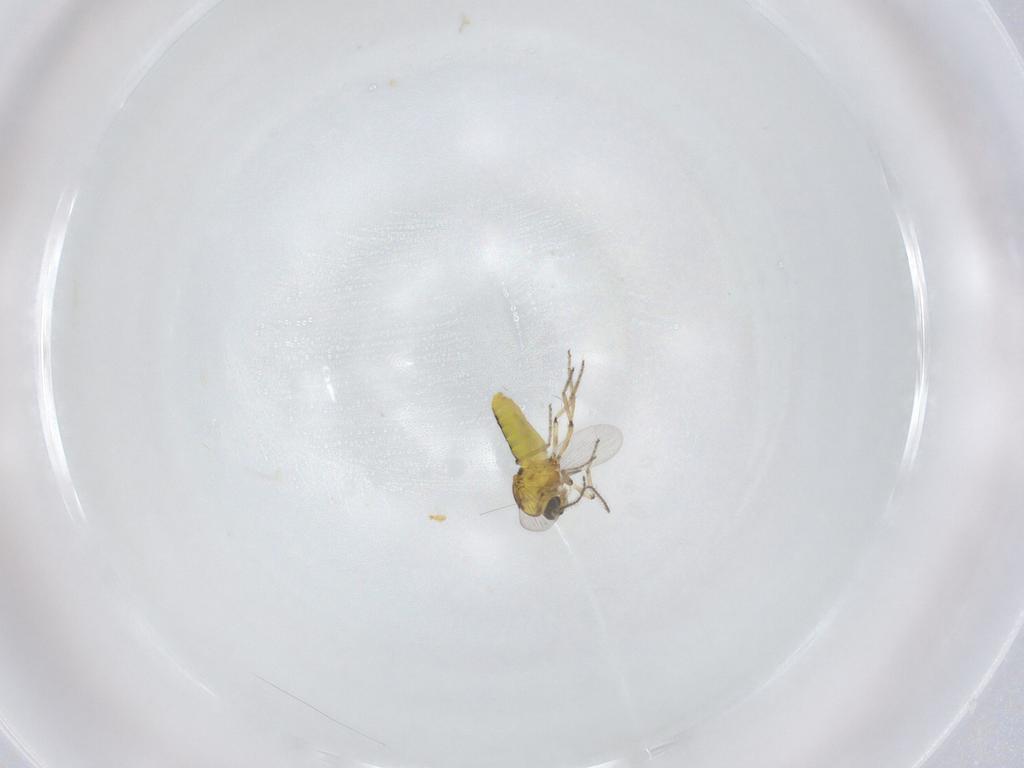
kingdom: Animalia
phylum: Arthropoda
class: Insecta
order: Diptera
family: Ceratopogonidae
